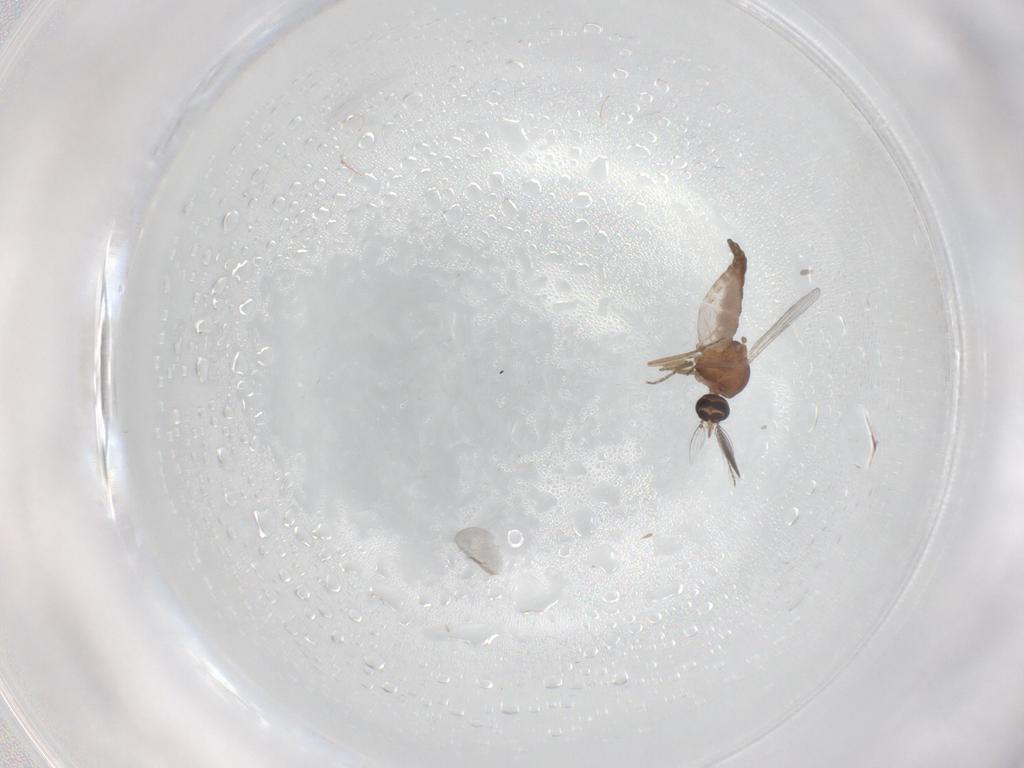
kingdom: Animalia
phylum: Arthropoda
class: Insecta
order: Diptera
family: Ceratopogonidae
